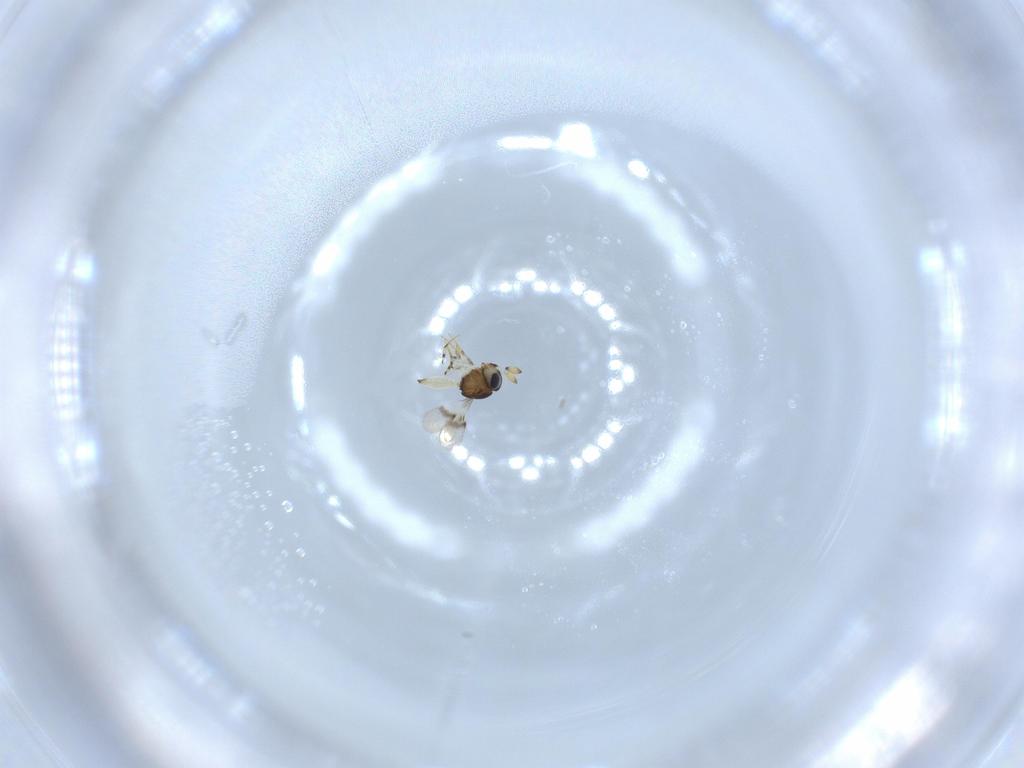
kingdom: Animalia
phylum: Arthropoda
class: Insecta
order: Hymenoptera
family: Scelionidae
